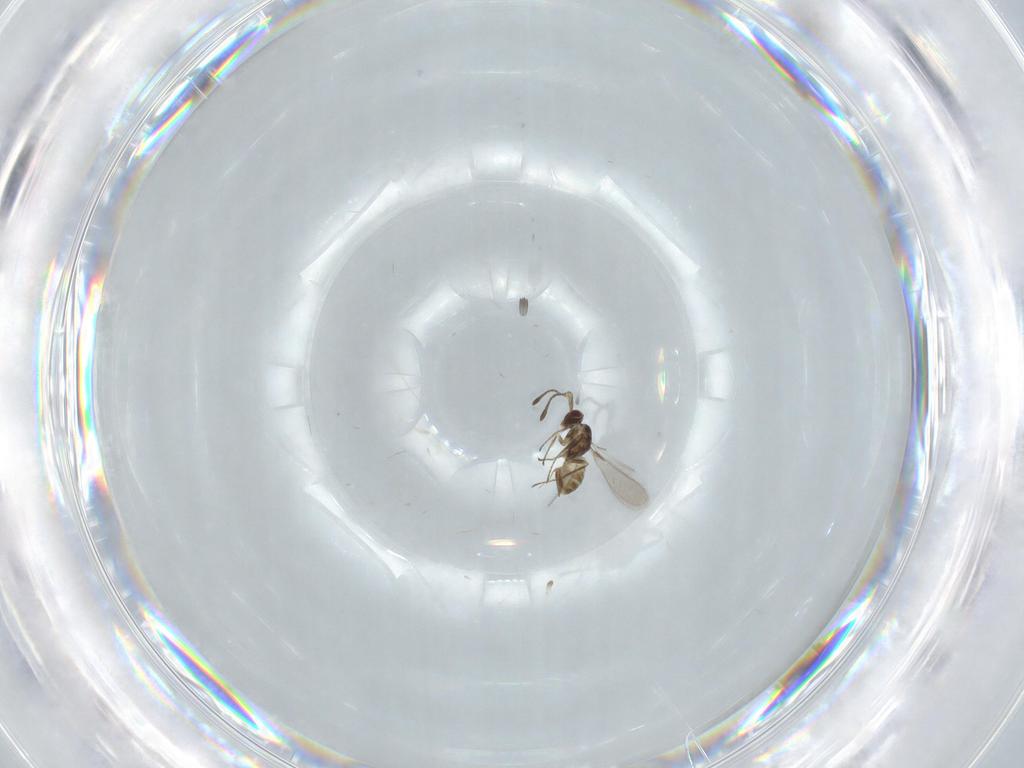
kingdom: Animalia
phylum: Arthropoda
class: Insecta
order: Hymenoptera
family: Mymaridae
